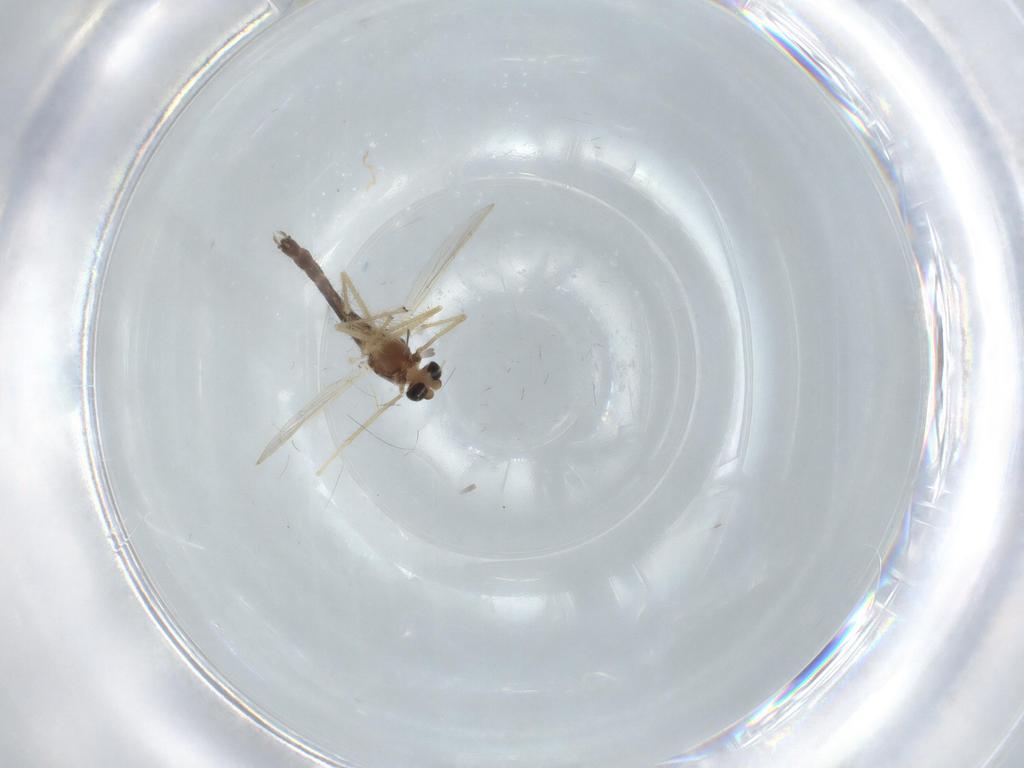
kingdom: Animalia
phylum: Arthropoda
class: Insecta
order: Diptera
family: Chironomidae
